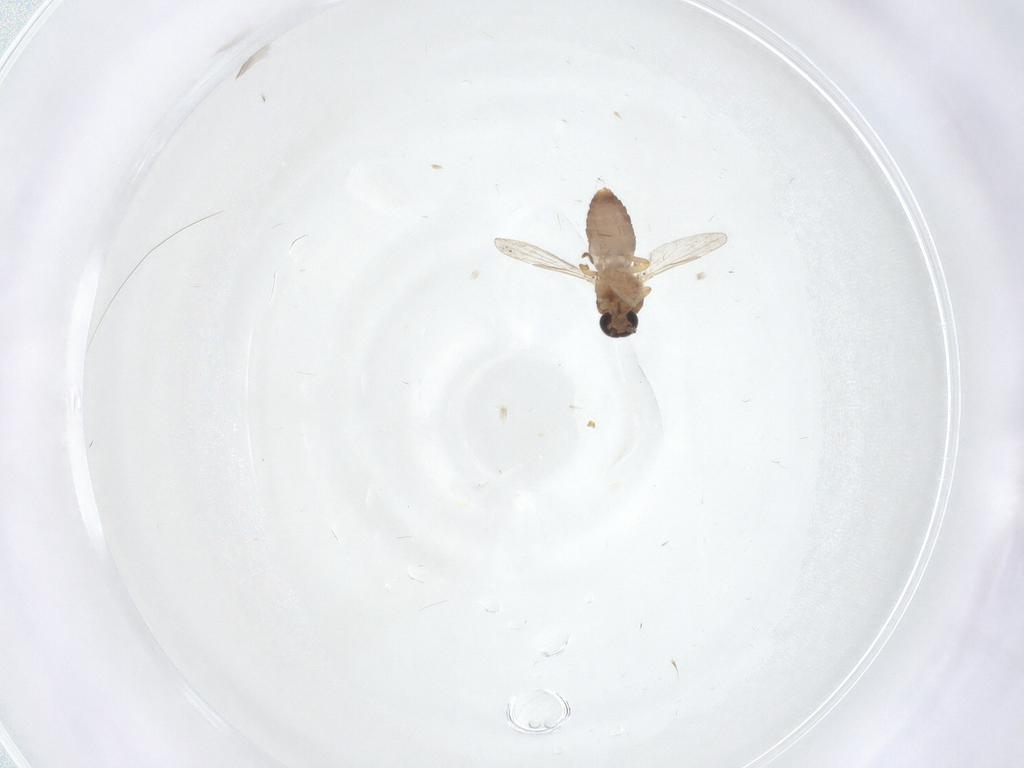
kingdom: Animalia
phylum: Arthropoda
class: Insecta
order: Diptera
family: Ceratopogonidae
